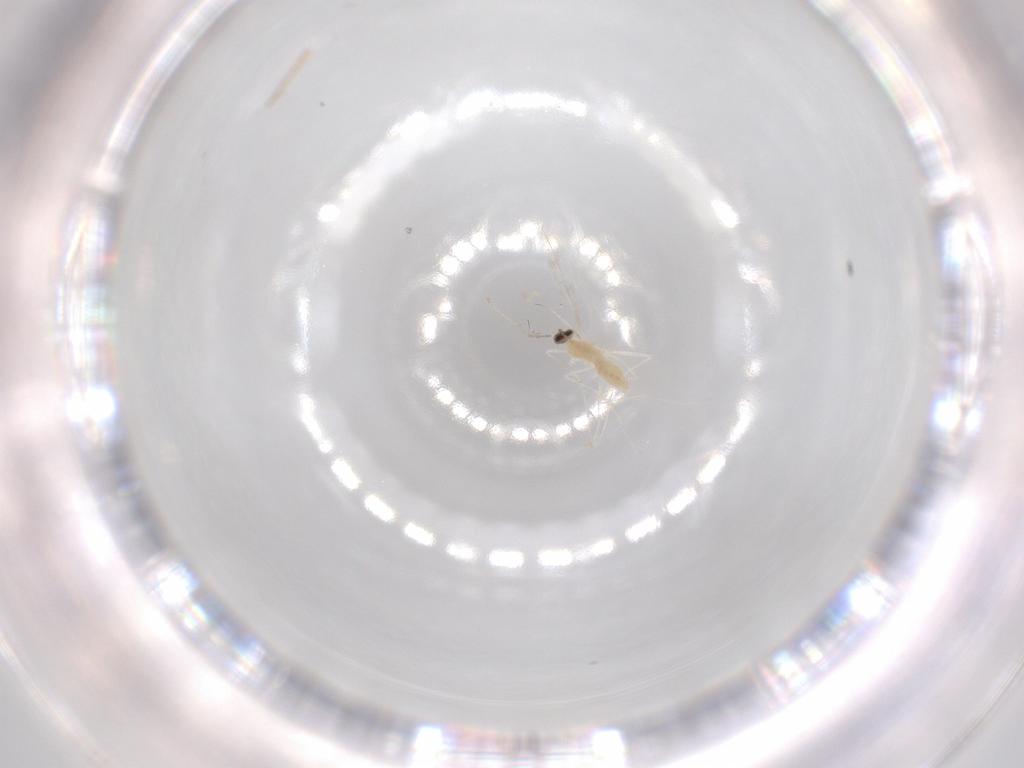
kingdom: Animalia
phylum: Arthropoda
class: Insecta
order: Diptera
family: Cecidomyiidae
